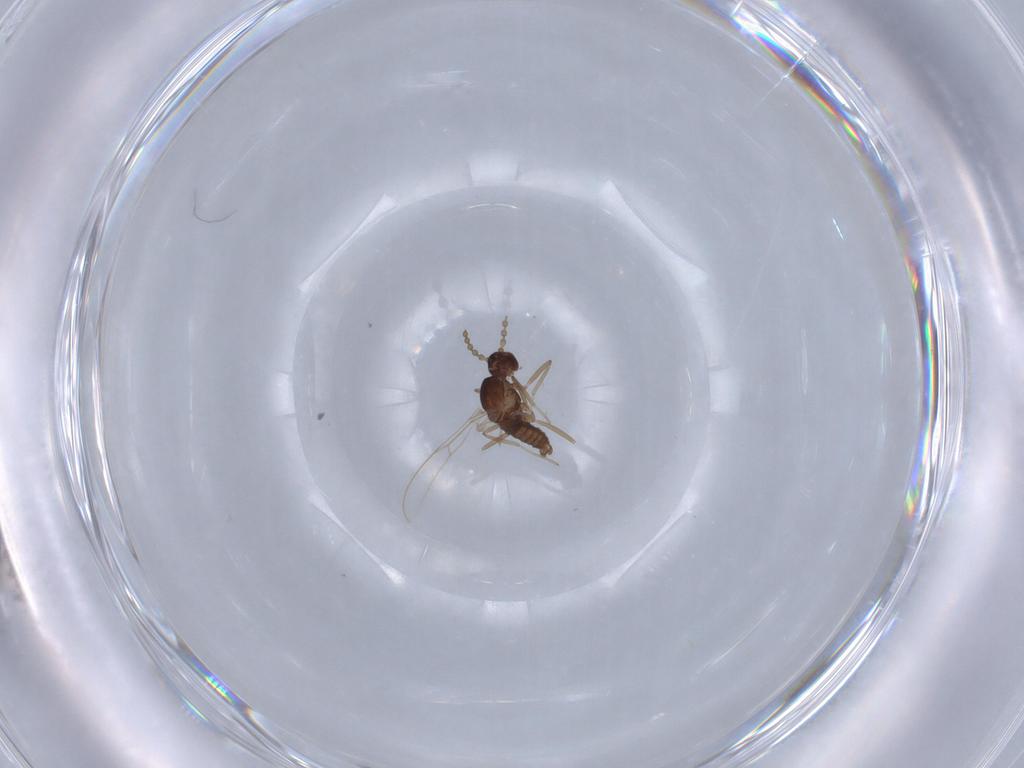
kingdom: Animalia
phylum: Arthropoda
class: Insecta
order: Diptera
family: Cecidomyiidae
